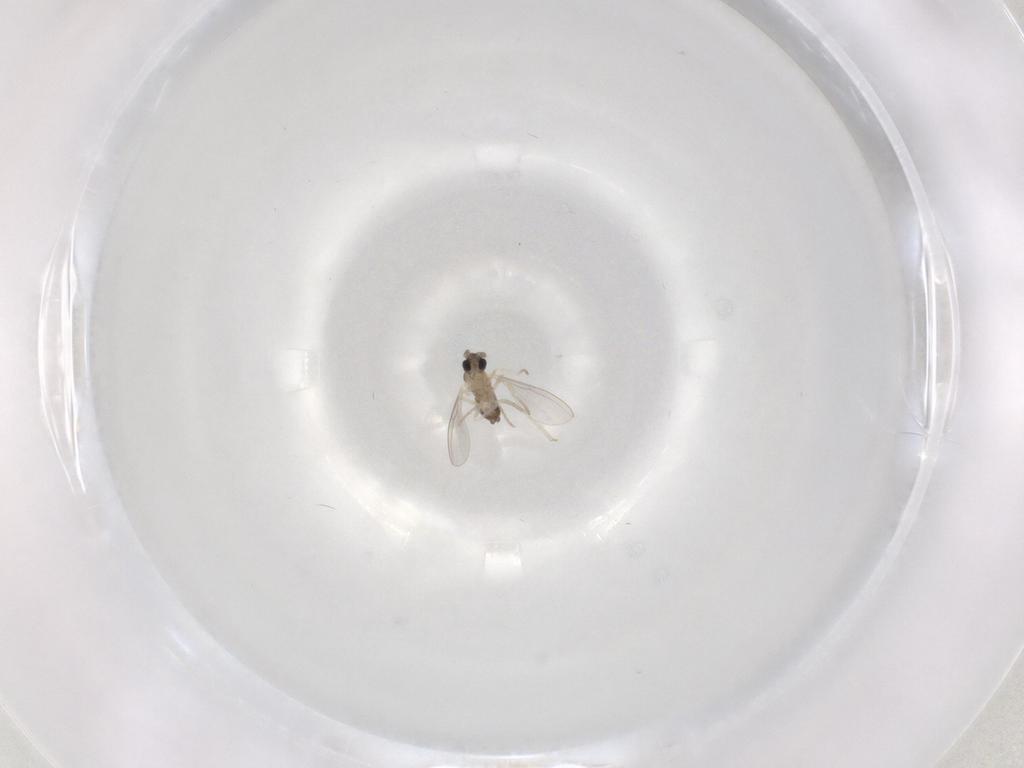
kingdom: Animalia
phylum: Arthropoda
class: Insecta
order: Diptera
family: Cecidomyiidae
